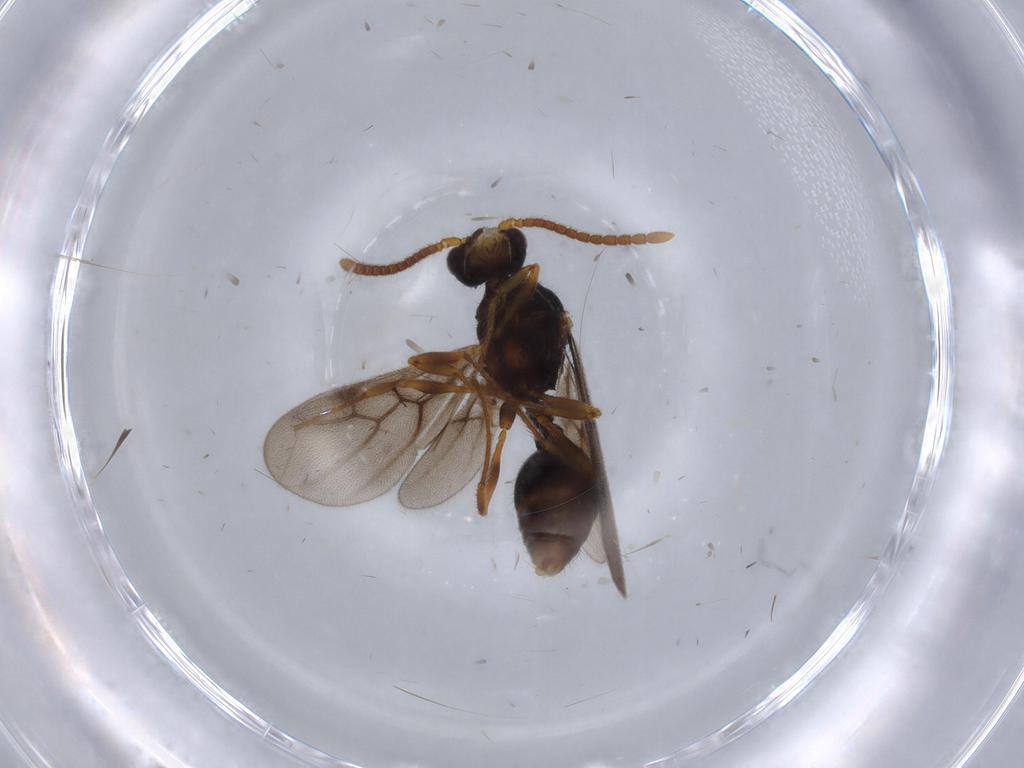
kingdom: Animalia
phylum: Arthropoda
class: Insecta
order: Hymenoptera
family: Formicidae
